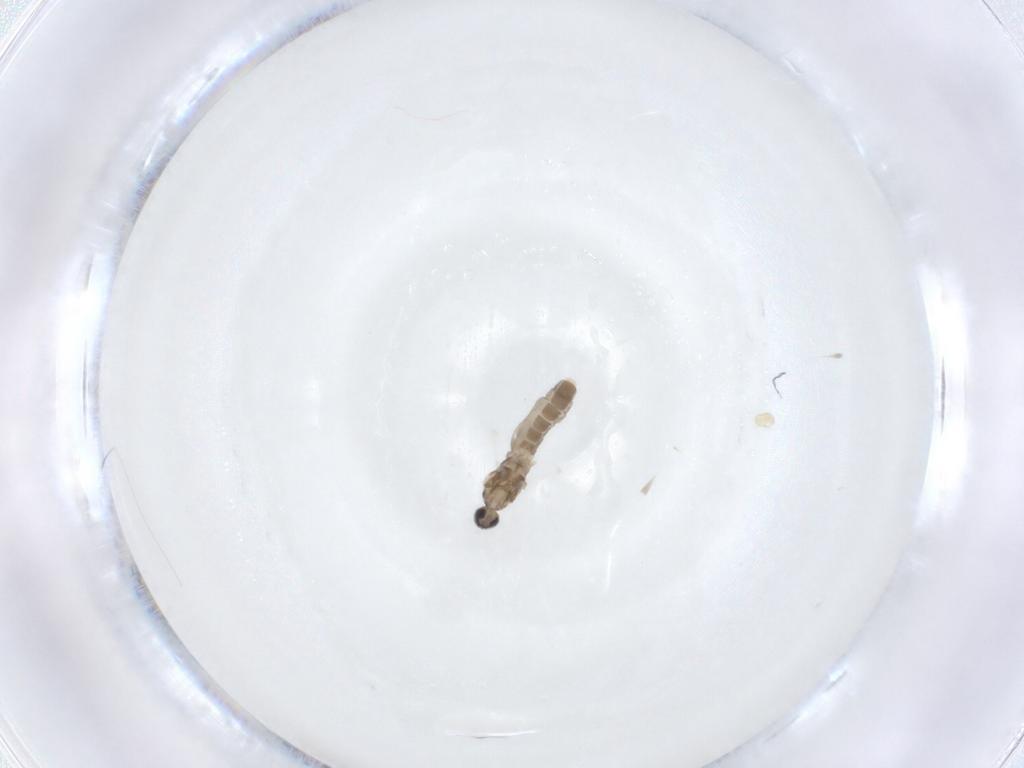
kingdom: Animalia
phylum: Arthropoda
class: Insecta
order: Diptera
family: Cecidomyiidae
